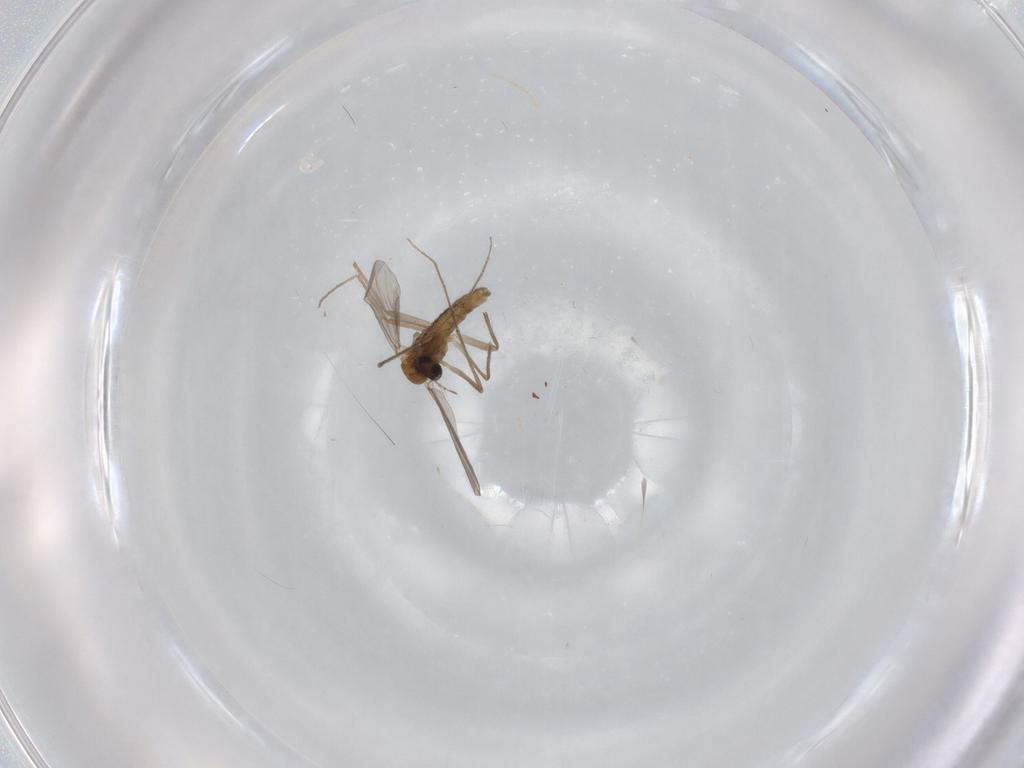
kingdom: Animalia
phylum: Arthropoda
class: Insecta
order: Diptera
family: Chironomidae
